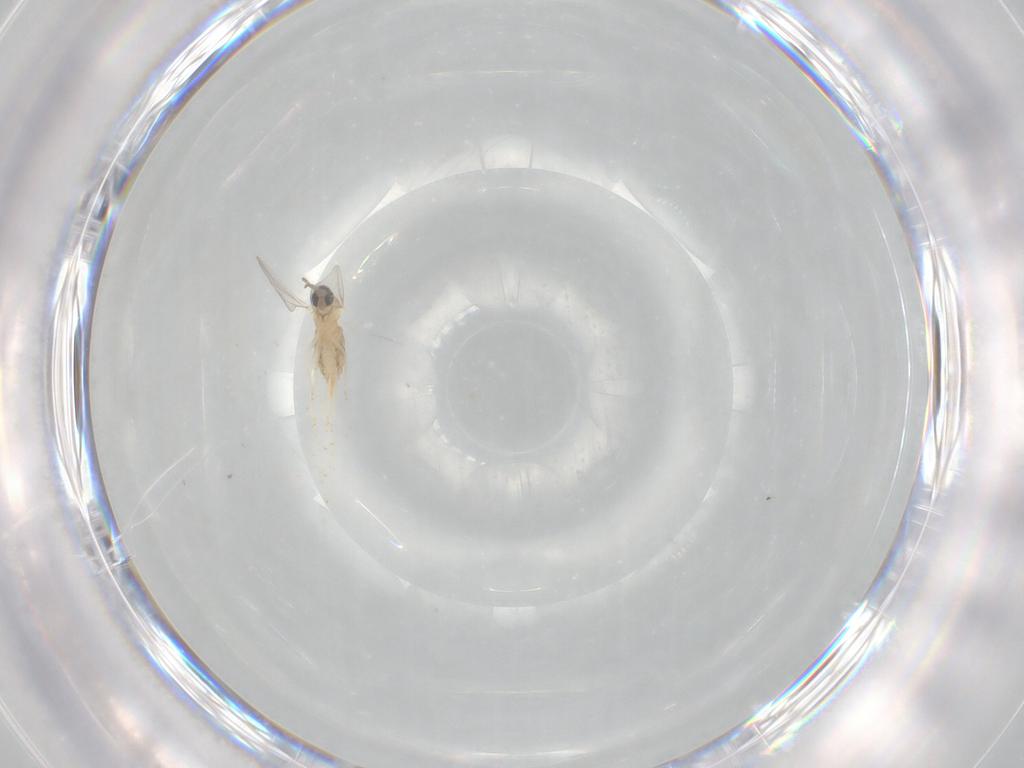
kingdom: Animalia
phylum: Arthropoda
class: Insecta
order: Diptera
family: Cecidomyiidae
